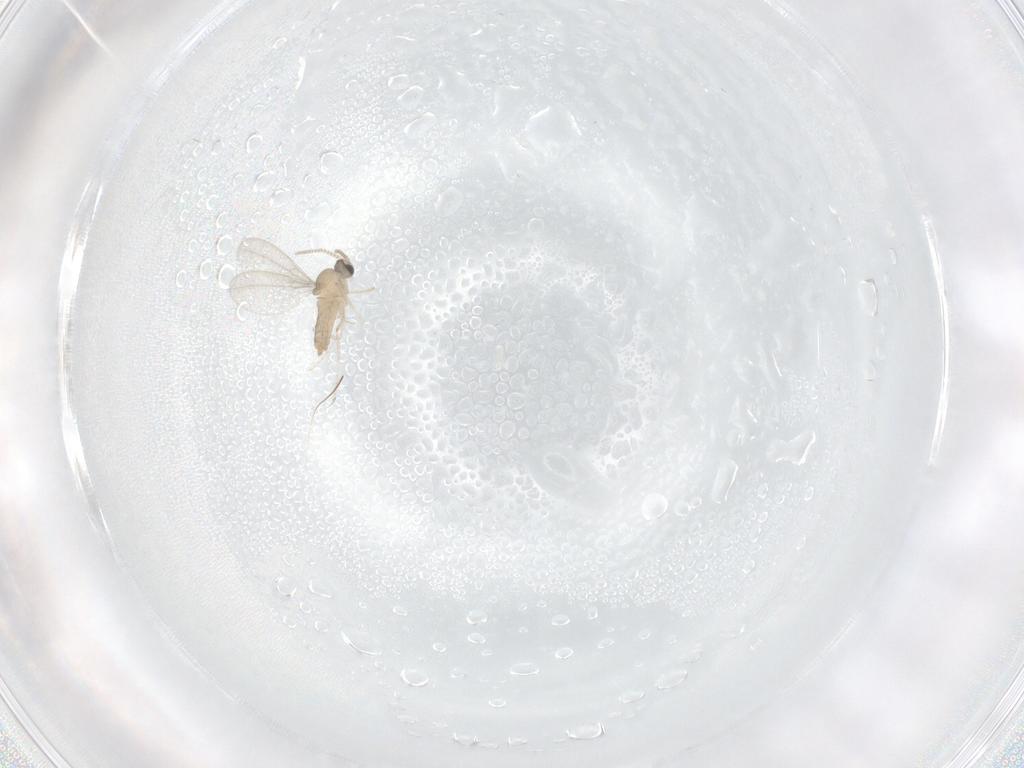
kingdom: Animalia
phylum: Arthropoda
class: Insecta
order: Diptera
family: Cecidomyiidae
